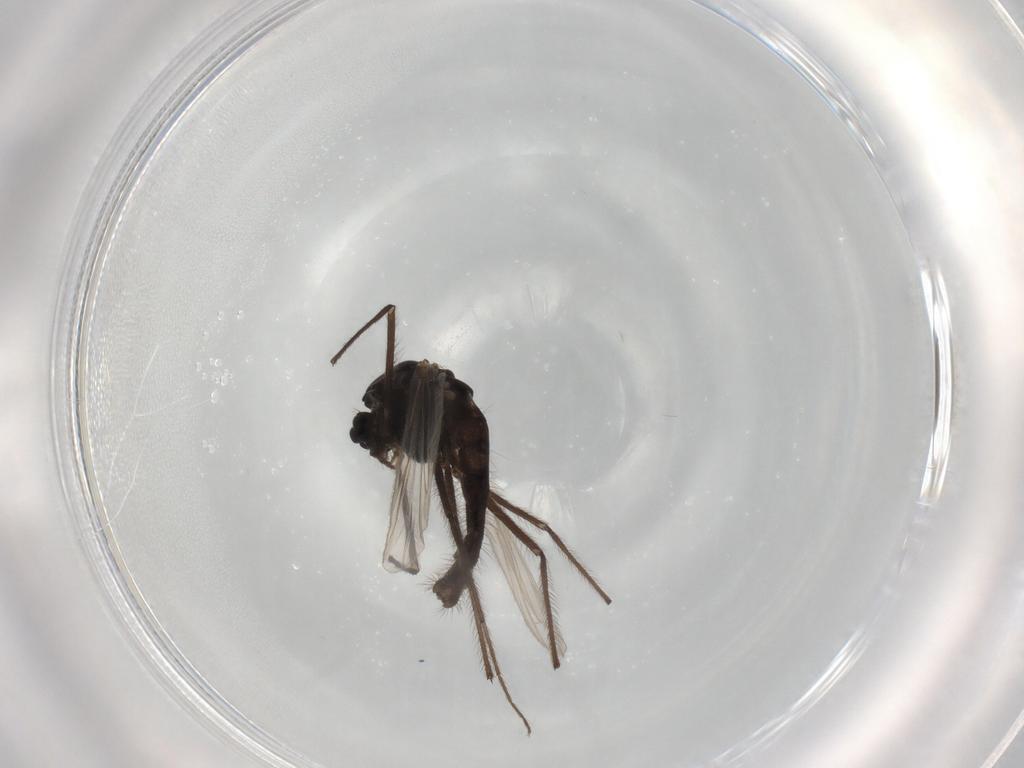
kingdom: Animalia
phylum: Arthropoda
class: Insecta
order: Diptera
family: Chironomidae
